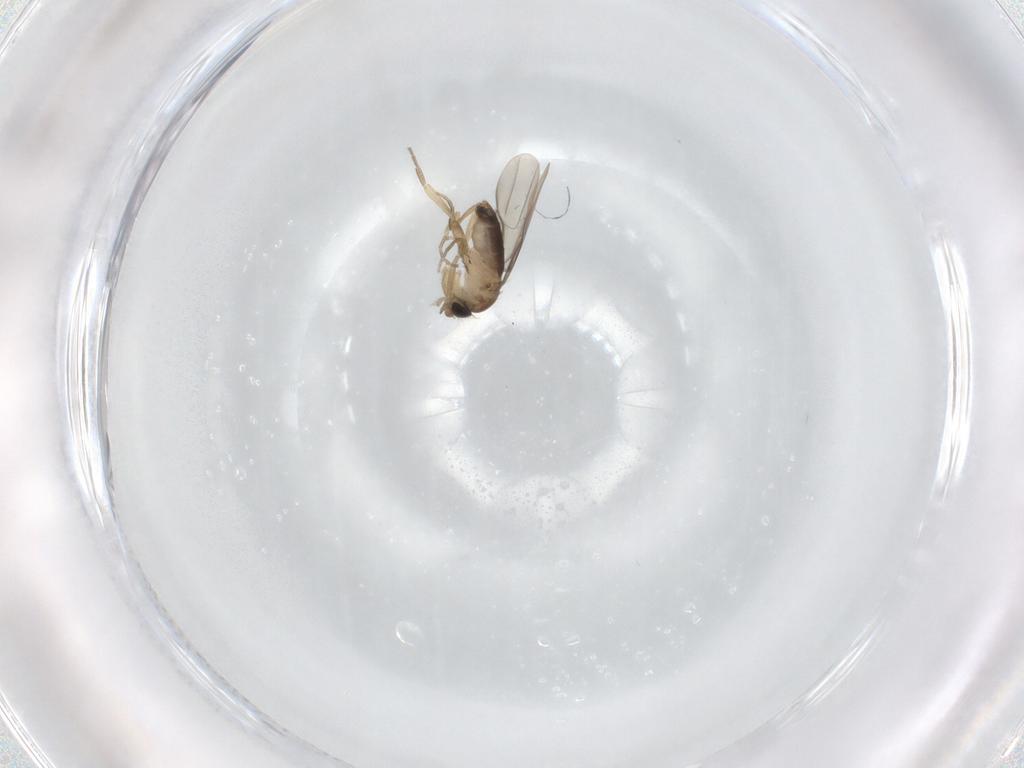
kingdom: Animalia
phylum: Arthropoda
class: Insecta
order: Diptera
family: Phoridae
